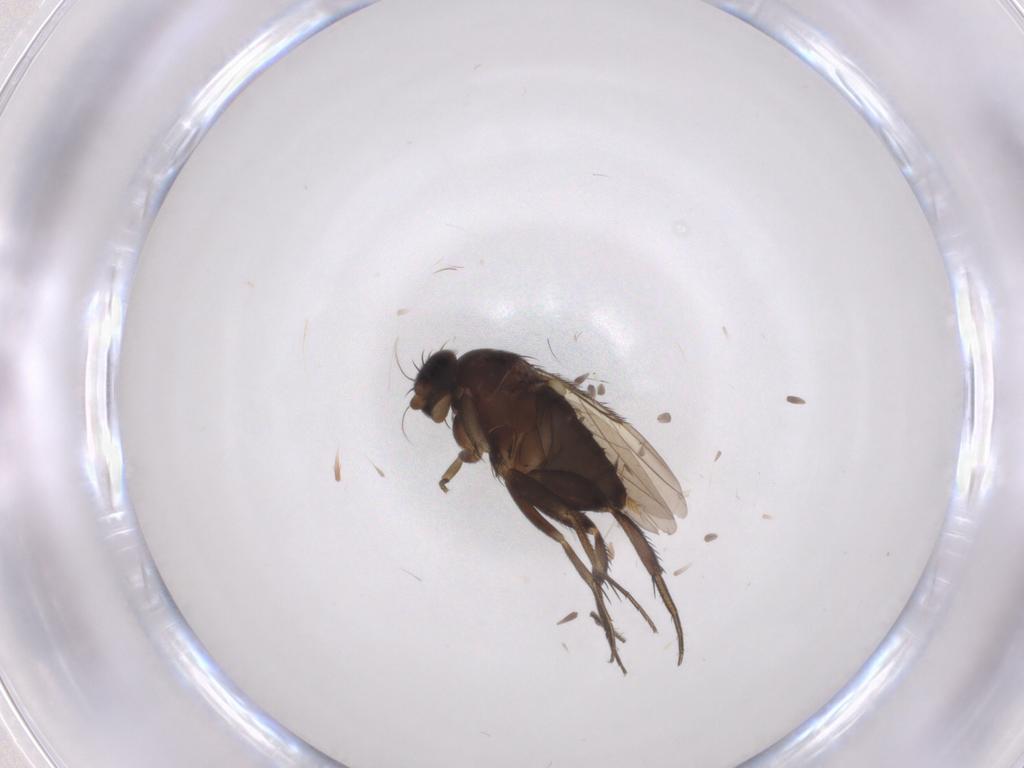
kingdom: Animalia
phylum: Arthropoda
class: Insecta
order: Diptera
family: Phoridae
